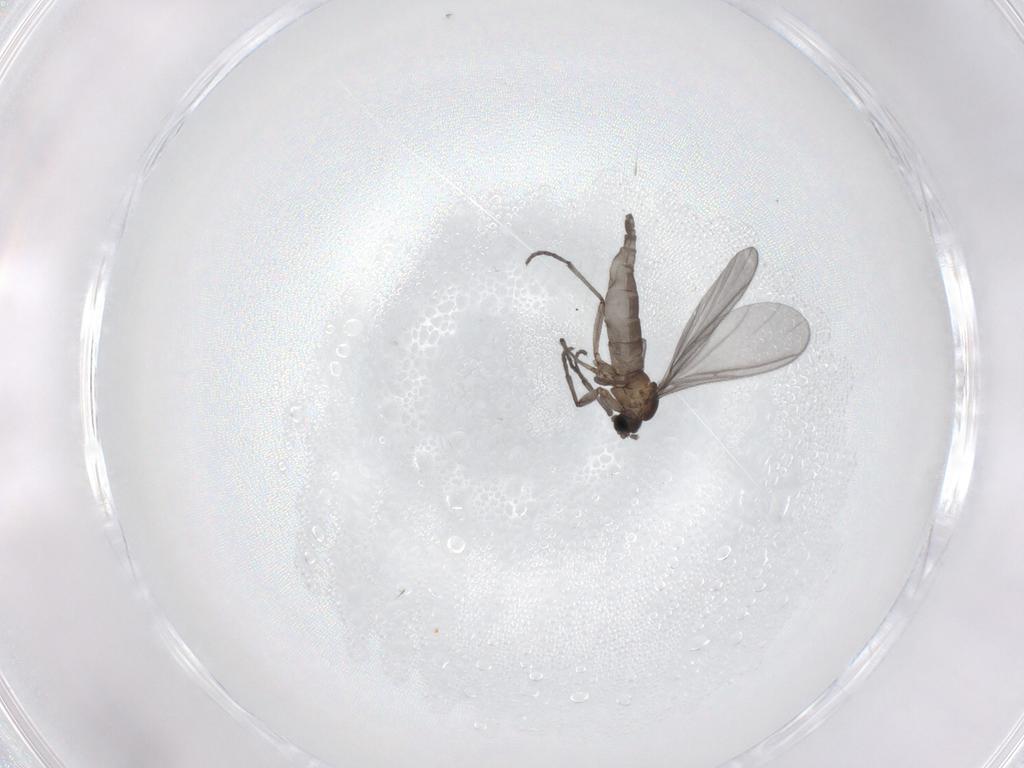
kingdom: Animalia
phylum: Arthropoda
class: Insecta
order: Diptera
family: Sciaridae
